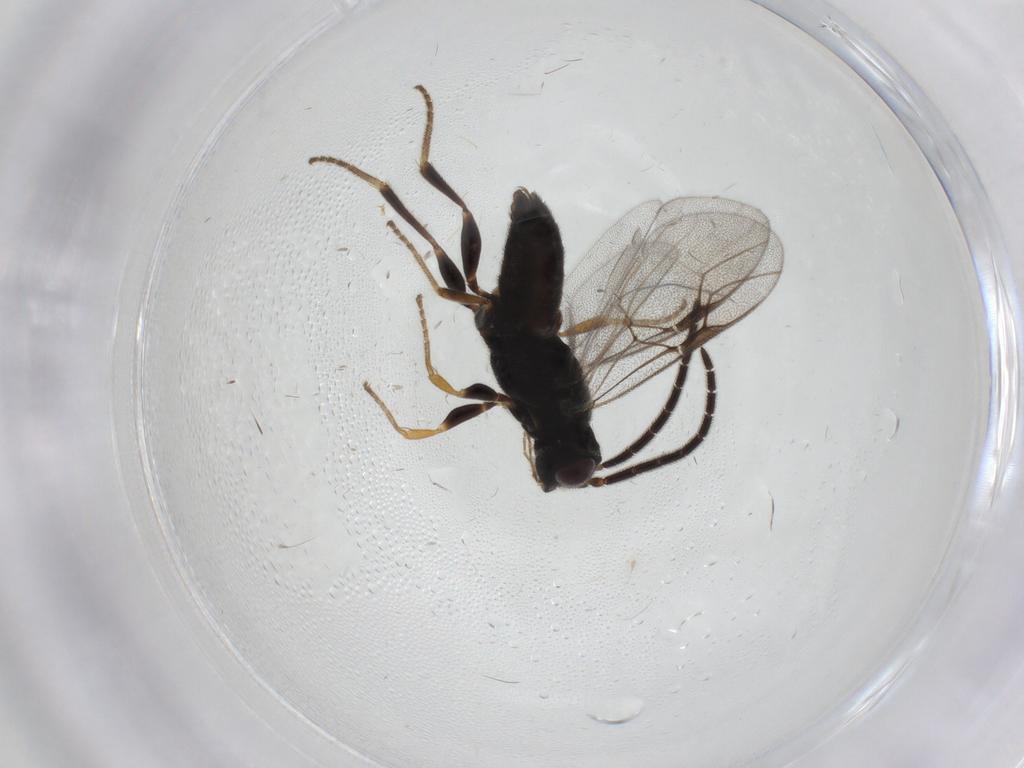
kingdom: Animalia
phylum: Arthropoda
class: Insecta
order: Hymenoptera
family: Dryinidae
